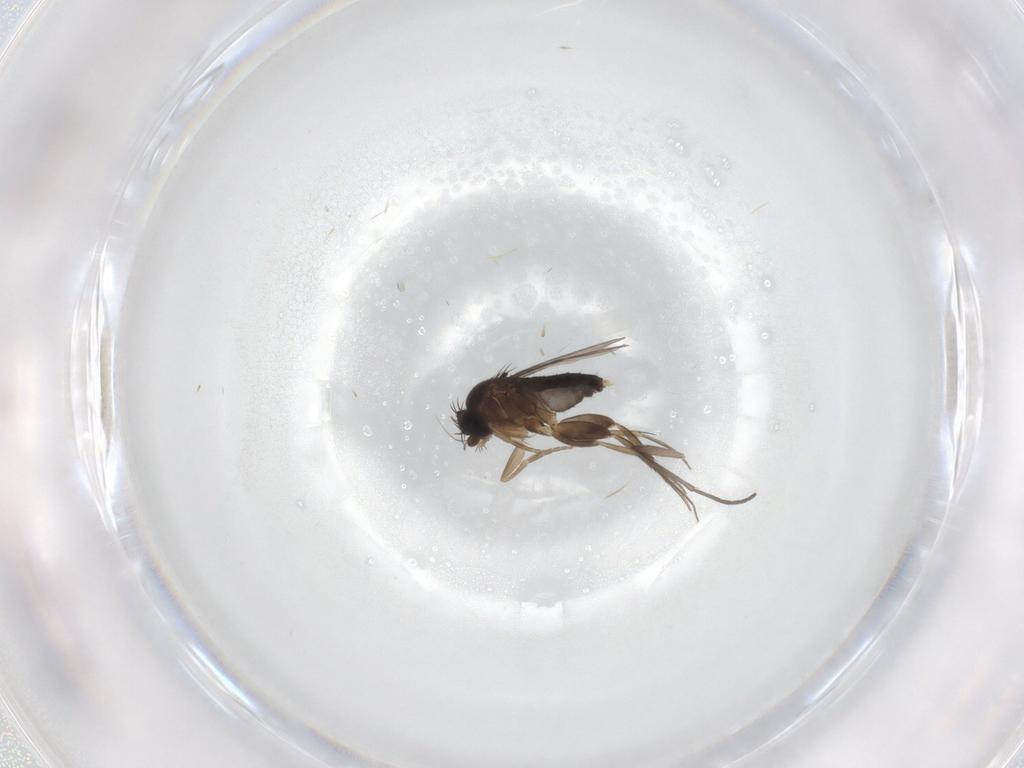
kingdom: Animalia
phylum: Arthropoda
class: Insecta
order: Diptera
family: Phoridae
